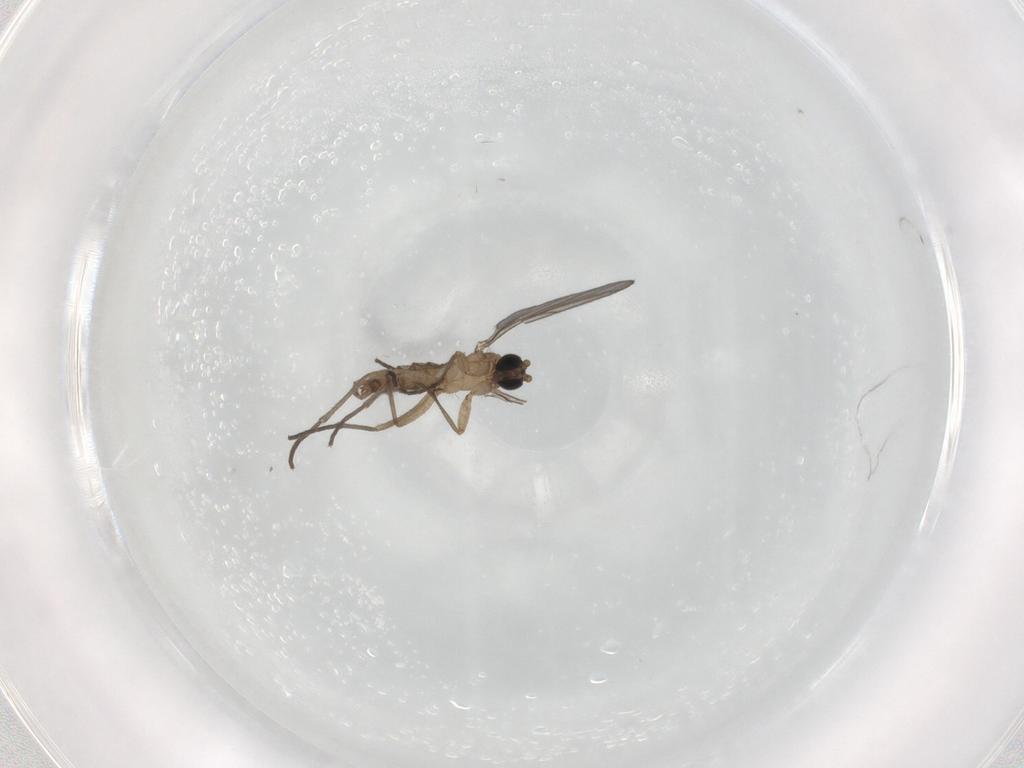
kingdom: Animalia
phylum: Arthropoda
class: Insecta
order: Diptera
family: Sciaridae
